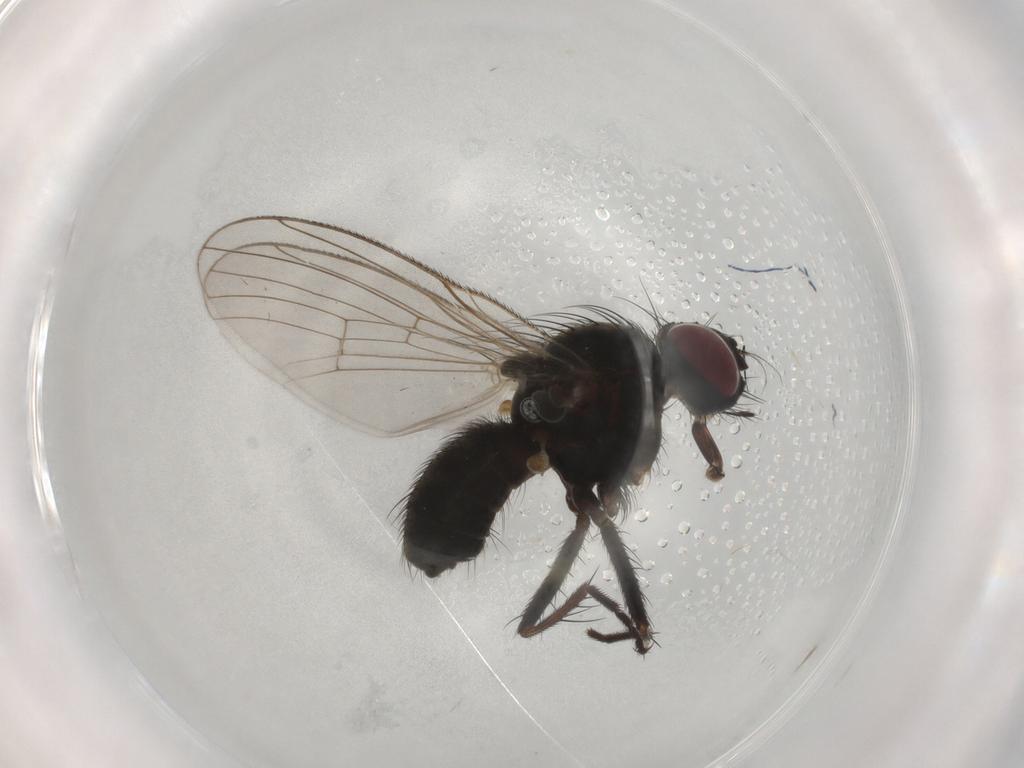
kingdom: Animalia
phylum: Arthropoda
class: Insecta
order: Diptera
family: Muscidae
